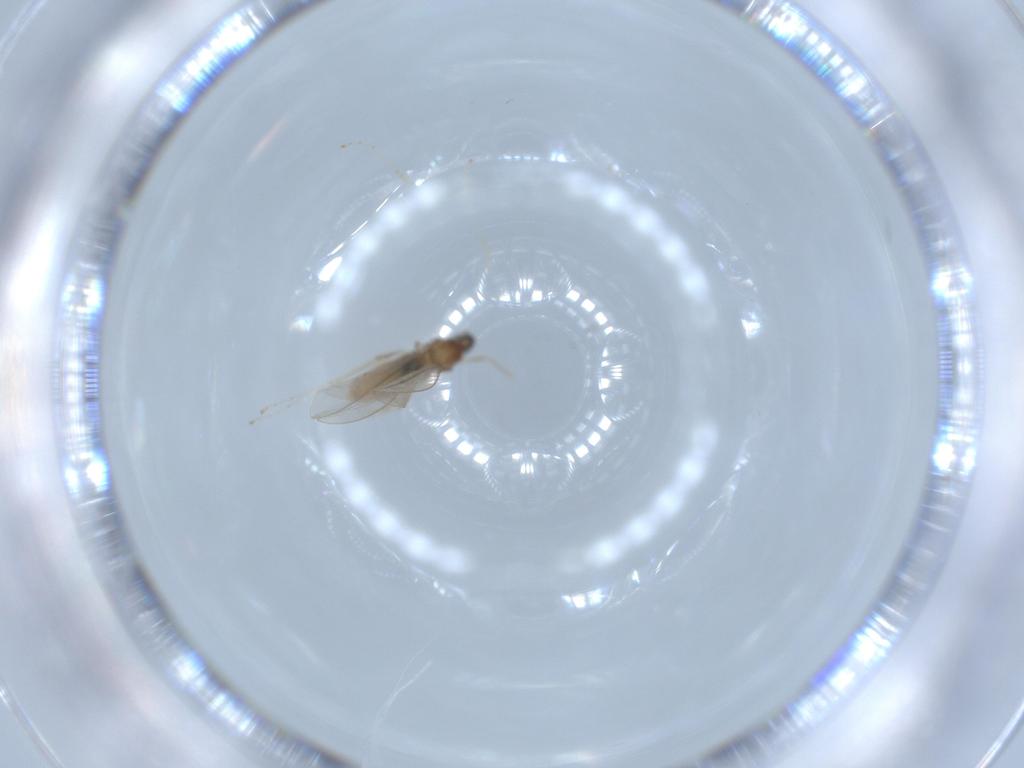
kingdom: Animalia
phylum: Arthropoda
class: Insecta
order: Diptera
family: Cecidomyiidae
